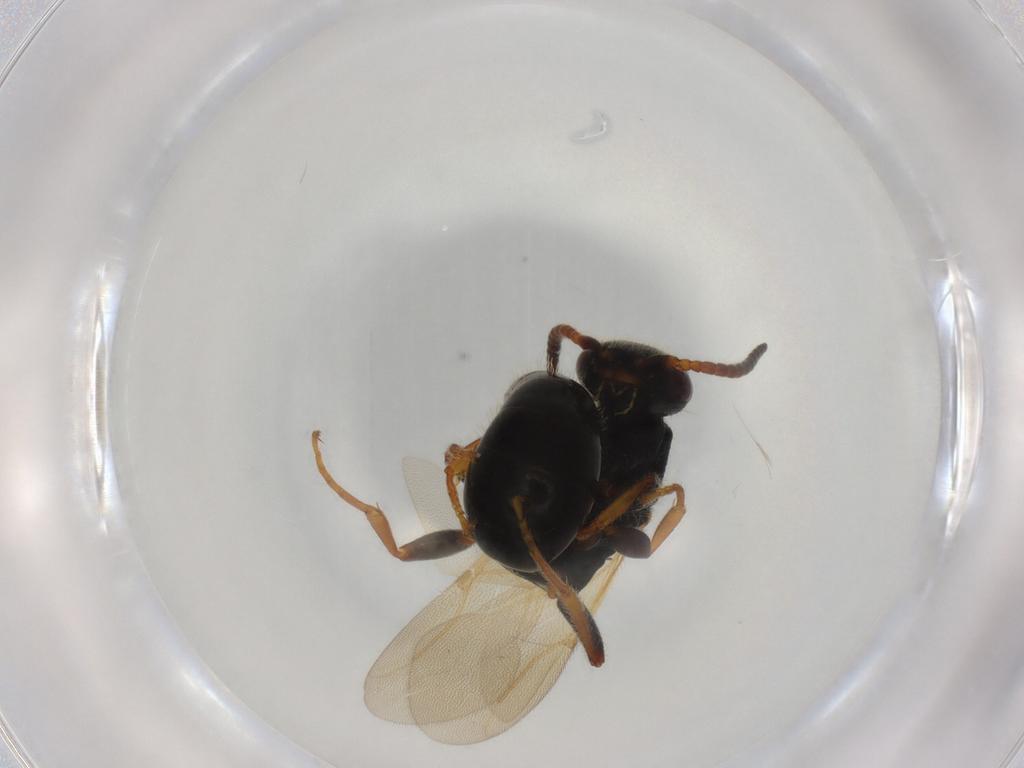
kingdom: Animalia
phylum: Arthropoda
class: Insecta
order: Hymenoptera
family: Bethylidae
